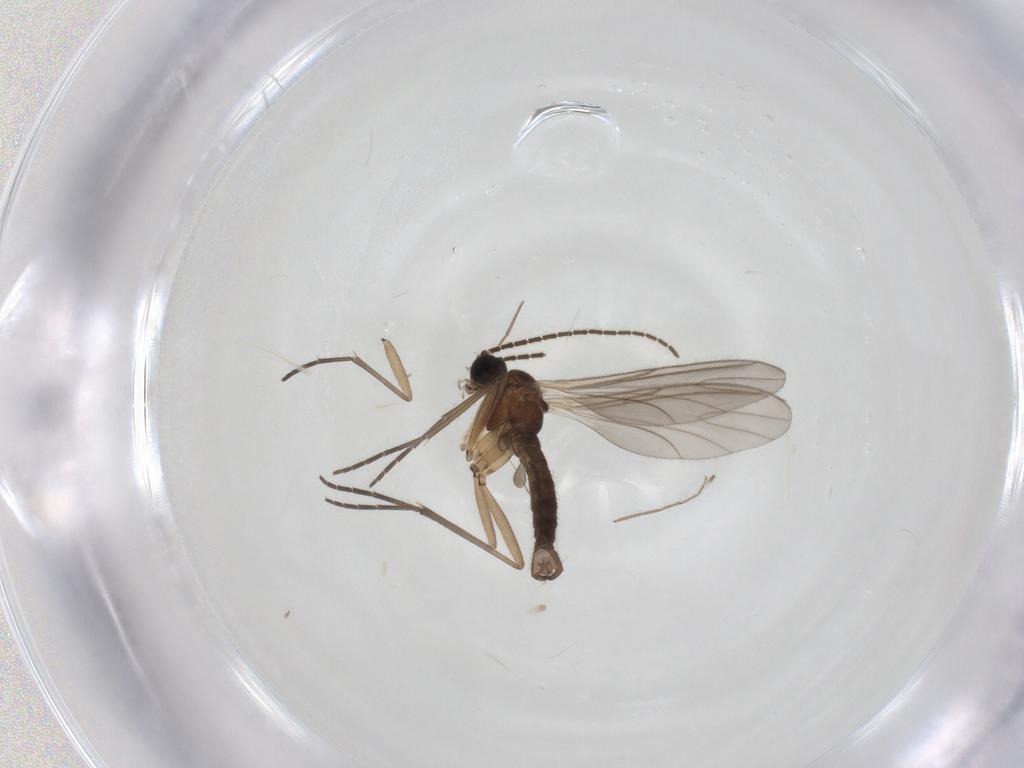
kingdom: Animalia
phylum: Arthropoda
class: Insecta
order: Diptera
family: Sciaridae
